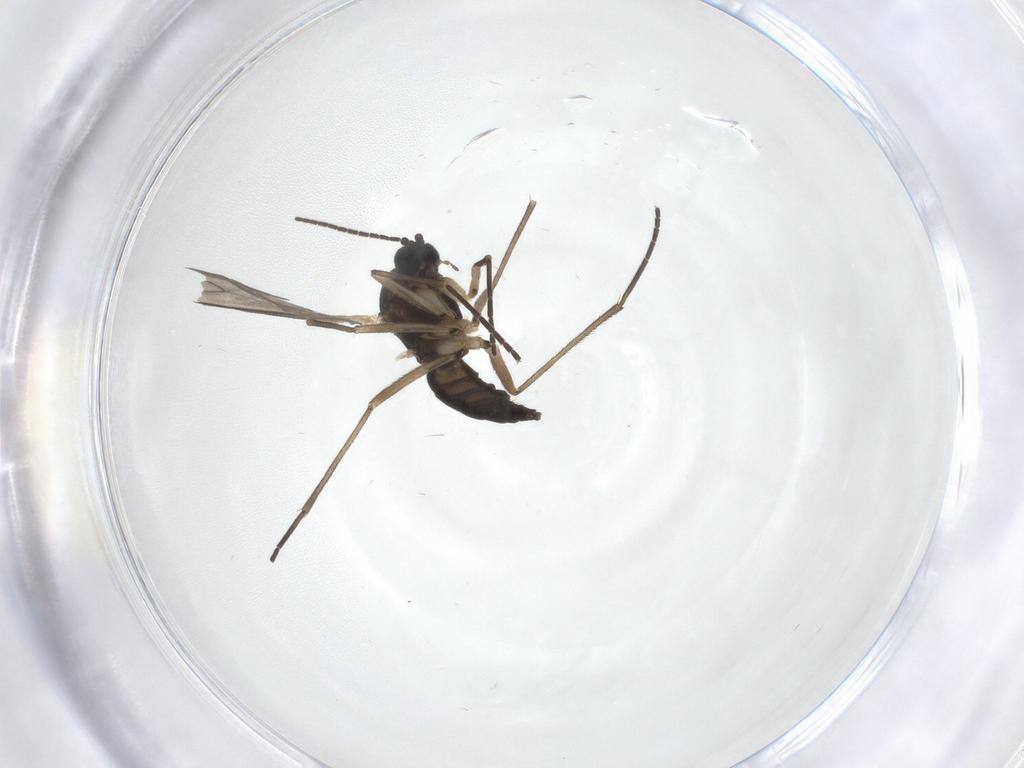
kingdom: Animalia
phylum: Arthropoda
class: Insecta
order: Diptera
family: Sciaridae
